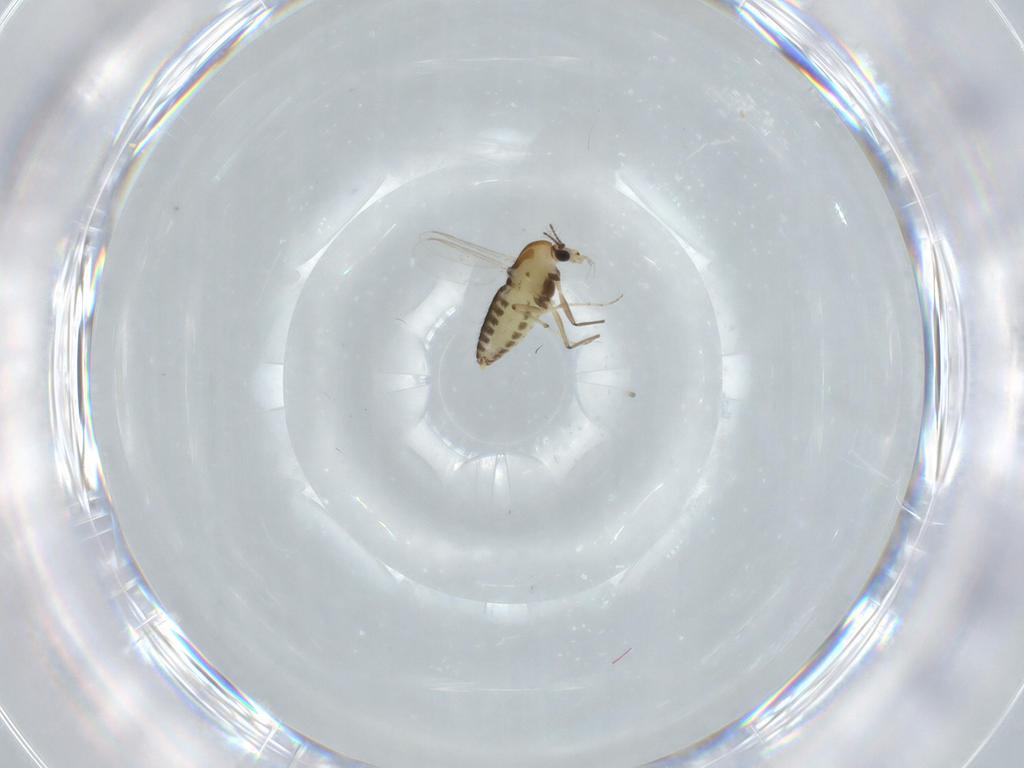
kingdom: Animalia
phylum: Arthropoda
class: Insecta
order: Diptera
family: Chironomidae
